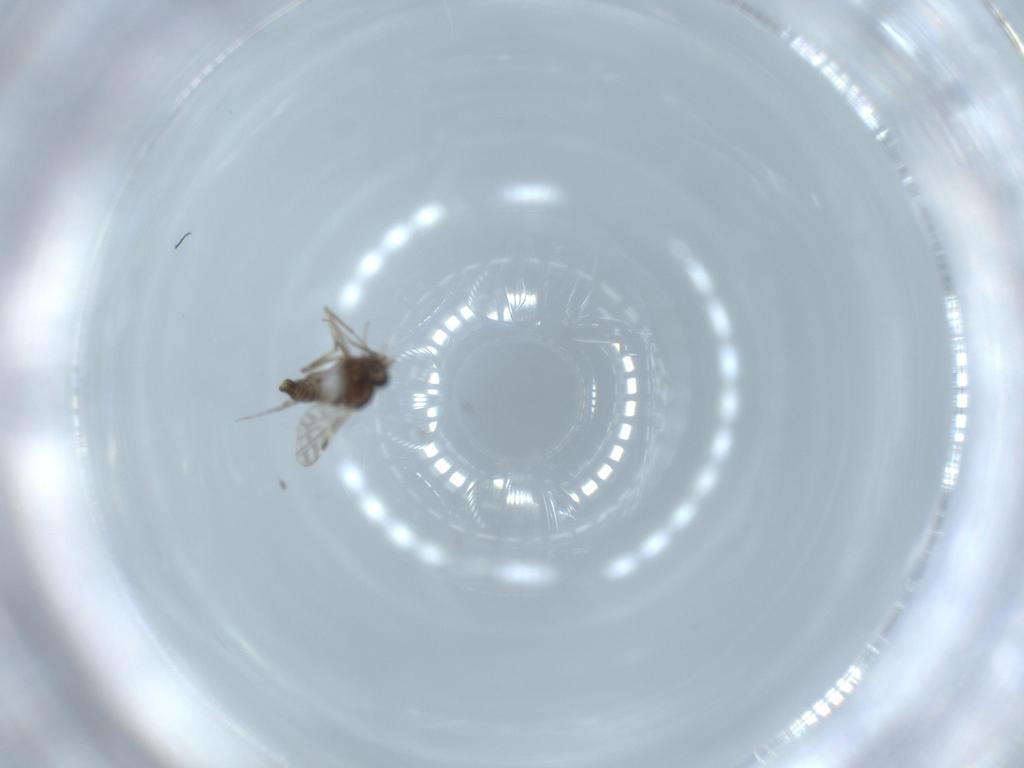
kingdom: Animalia
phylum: Arthropoda
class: Insecta
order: Diptera
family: Ceratopogonidae
